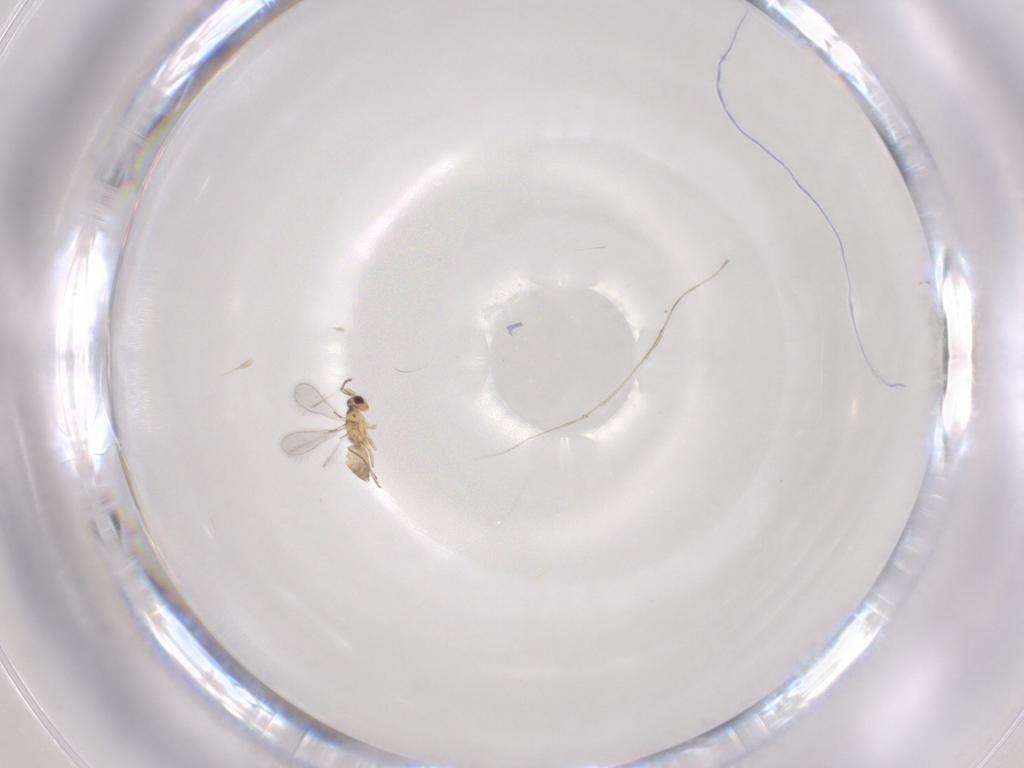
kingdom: Animalia
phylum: Arthropoda
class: Insecta
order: Hymenoptera
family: Mymaridae
